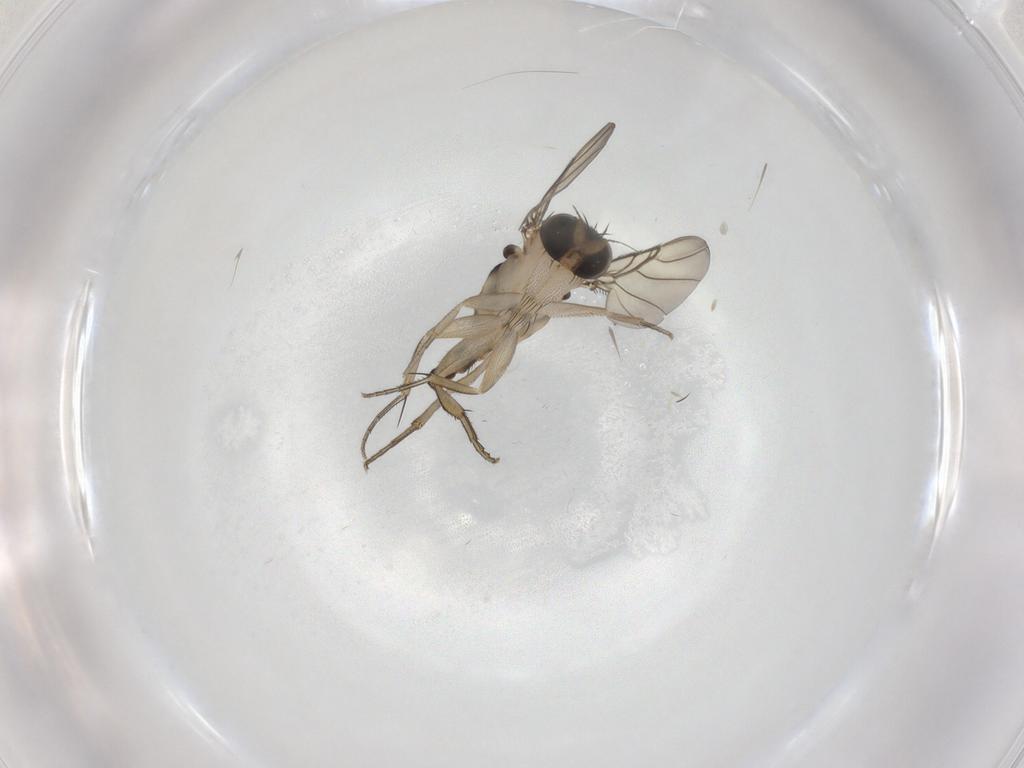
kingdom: Animalia
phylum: Arthropoda
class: Insecta
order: Diptera
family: Phoridae
